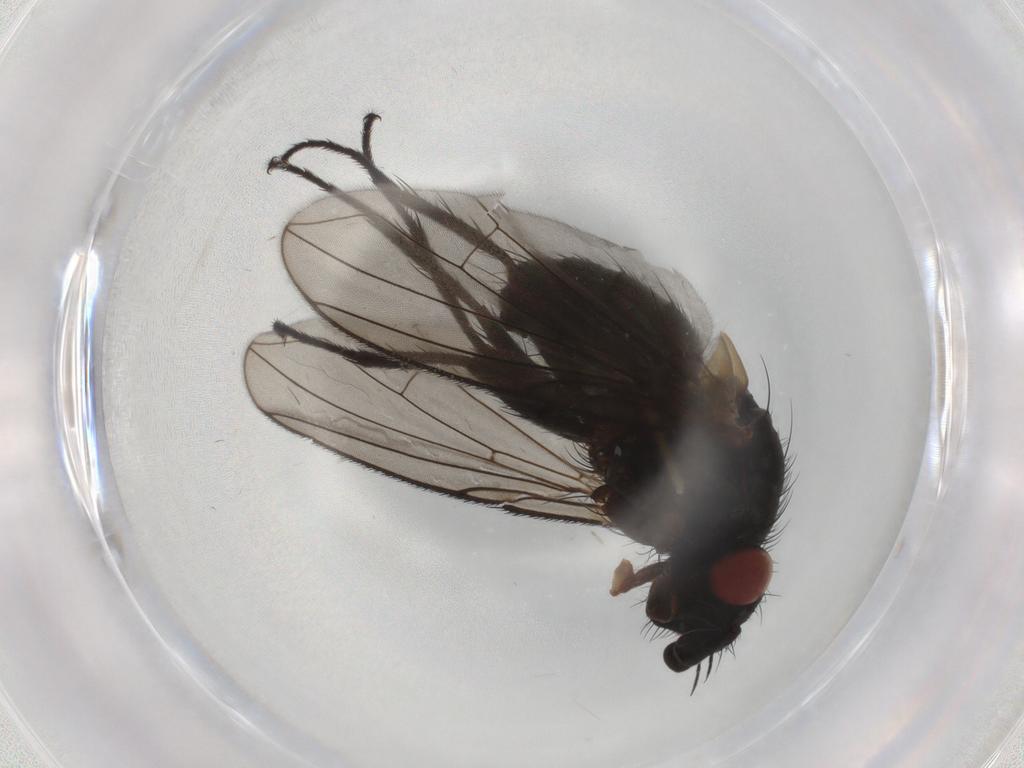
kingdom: Animalia
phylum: Arthropoda
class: Insecta
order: Diptera
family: Tachinidae
